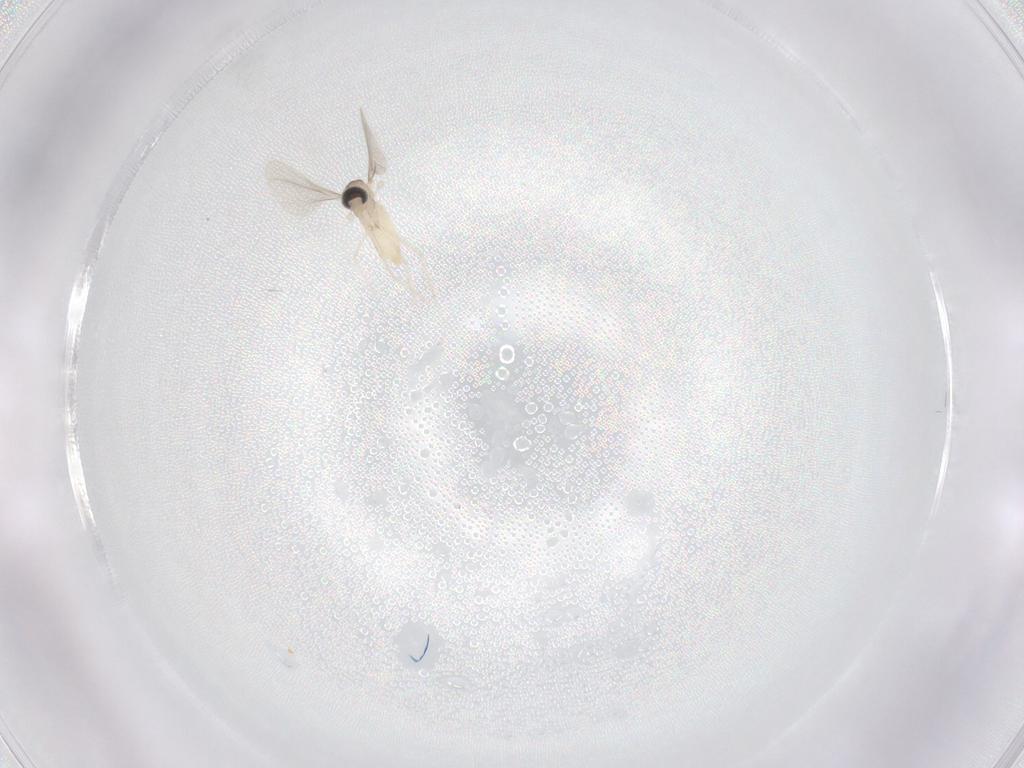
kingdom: Animalia
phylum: Arthropoda
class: Insecta
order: Diptera
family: Cecidomyiidae
